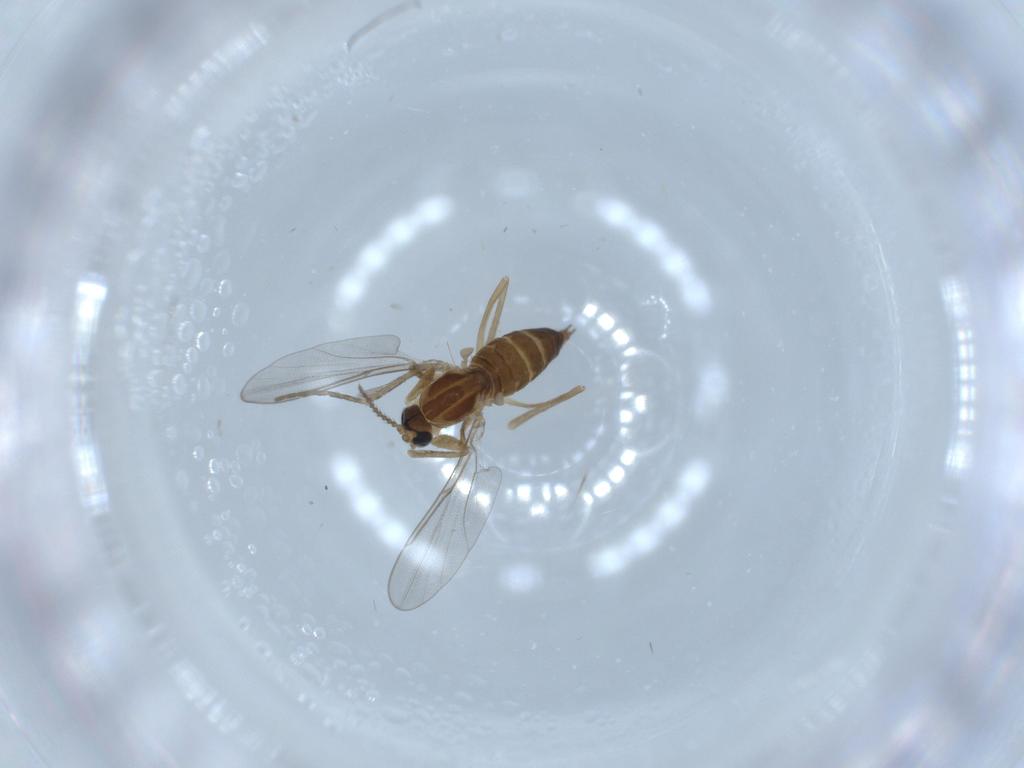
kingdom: Animalia
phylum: Arthropoda
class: Insecta
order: Diptera
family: Cecidomyiidae
